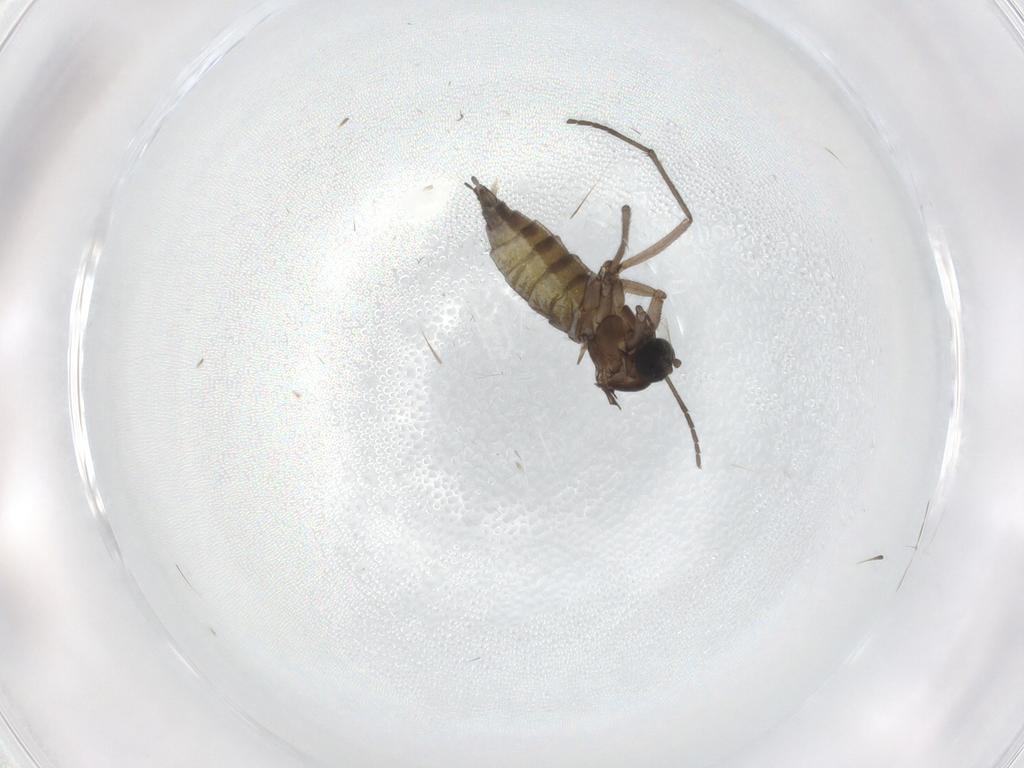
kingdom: Animalia
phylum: Arthropoda
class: Insecta
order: Diptera
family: Sciaridae
